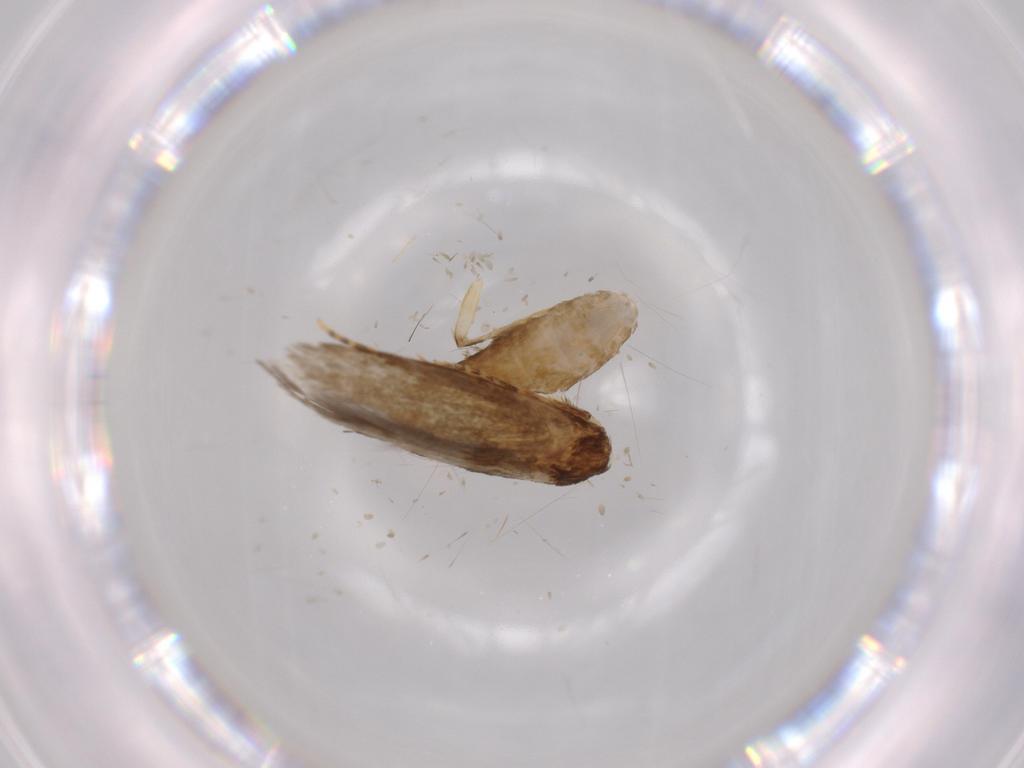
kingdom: Animalia
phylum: Arthropoda
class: Insecta
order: Lepidoptera
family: Tineidae
